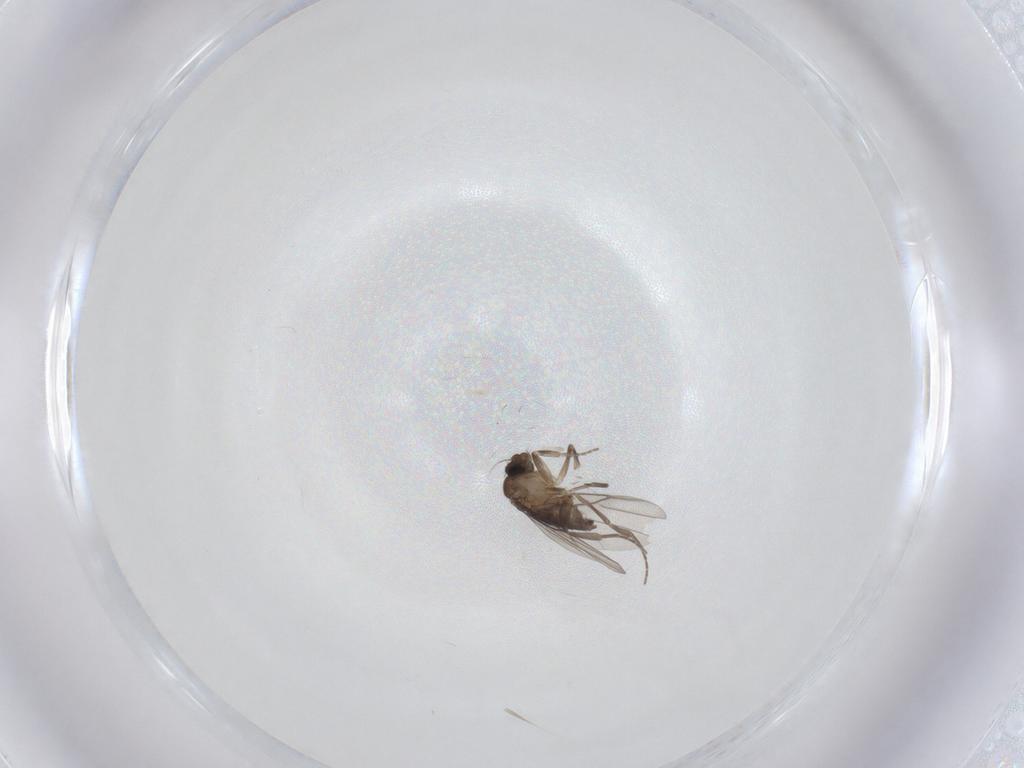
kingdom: Animalia
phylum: Arthropoda
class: Insecta
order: Diptera
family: Phoridae
